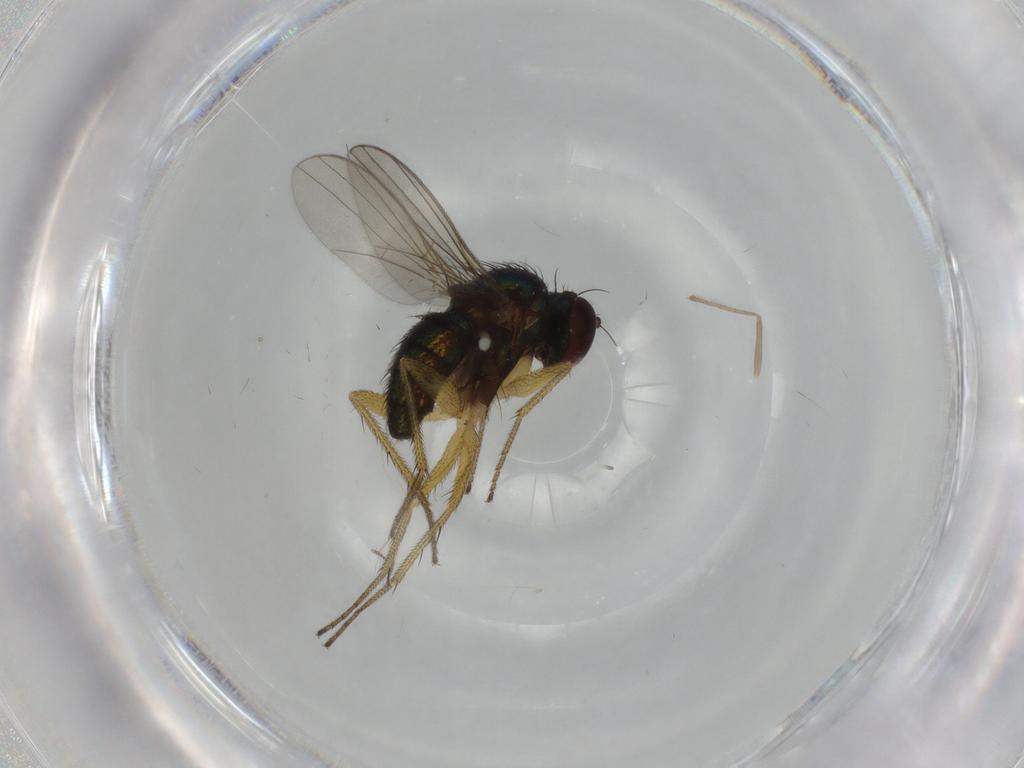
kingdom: Animalia
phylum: Arthropoda
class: Insecta
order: Diptera
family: Dolichopodidae
